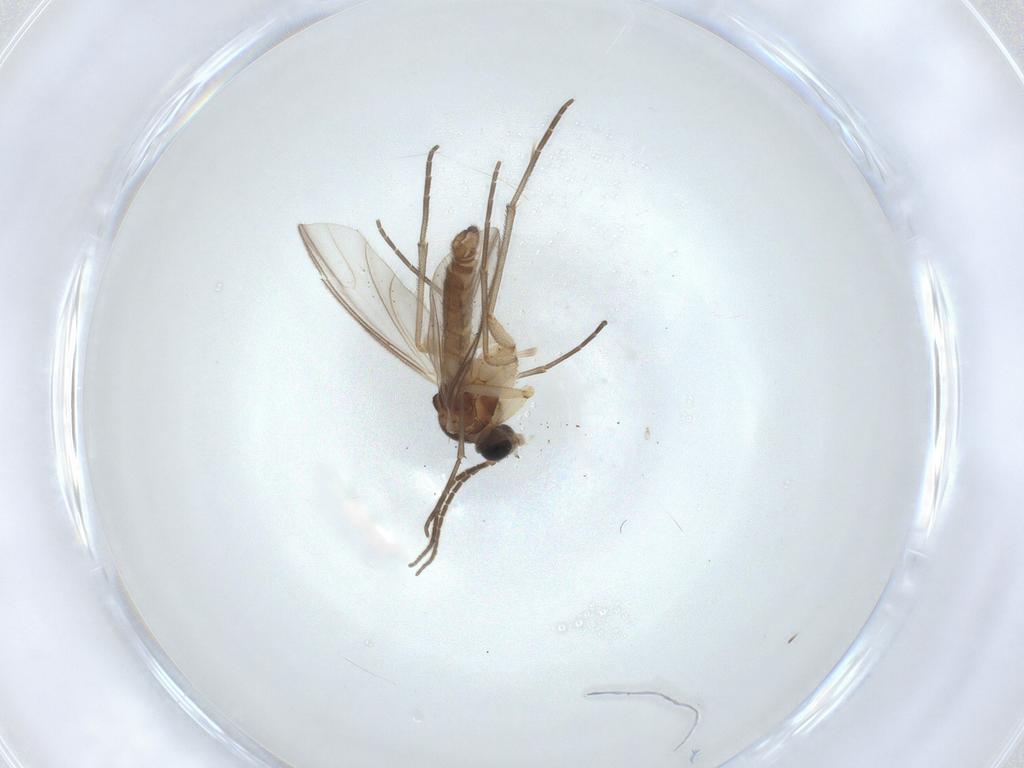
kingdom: Animalia
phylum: Arthropoda
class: Insecta
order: Diptera
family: Sciaridae
